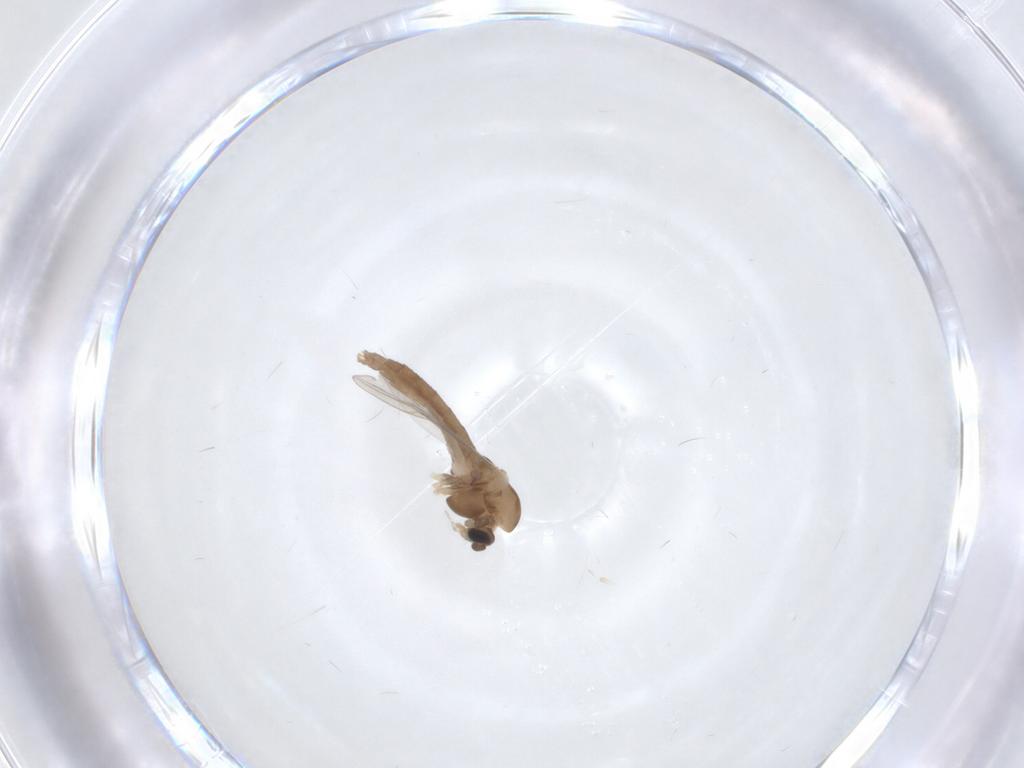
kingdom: Animalia
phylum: Arthropoda
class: Insecta
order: Diptera
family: Chironomidae
